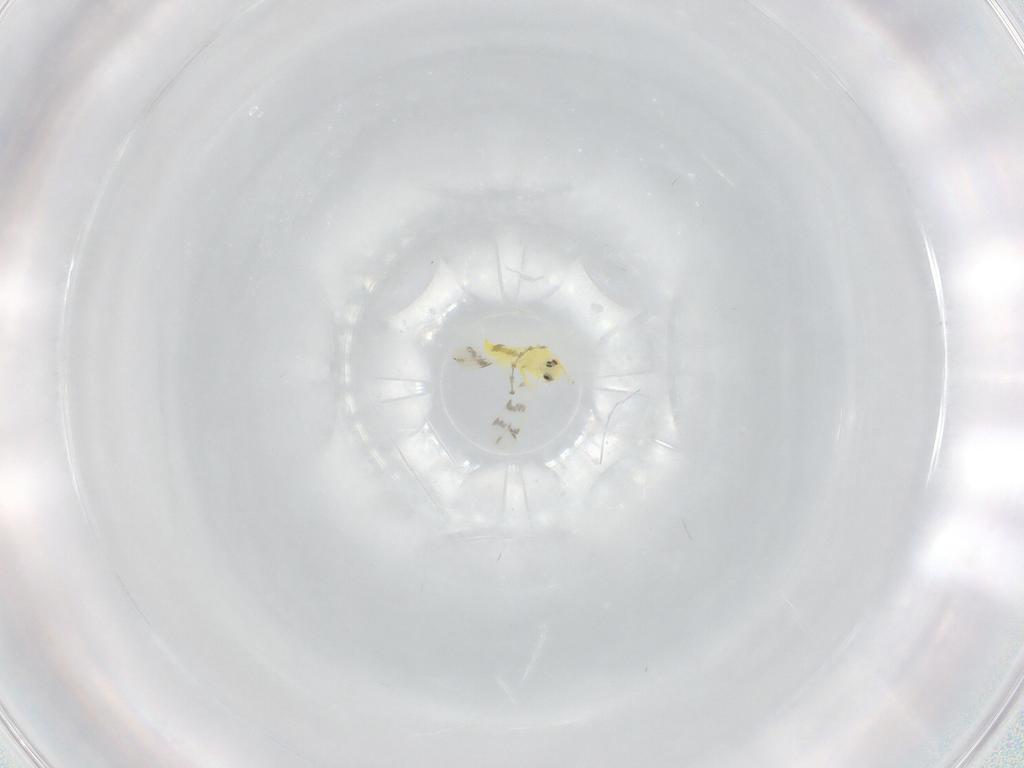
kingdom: Animalia
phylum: Arthropoda
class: Insecta
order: Hemiptera
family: Aleyrodidae
